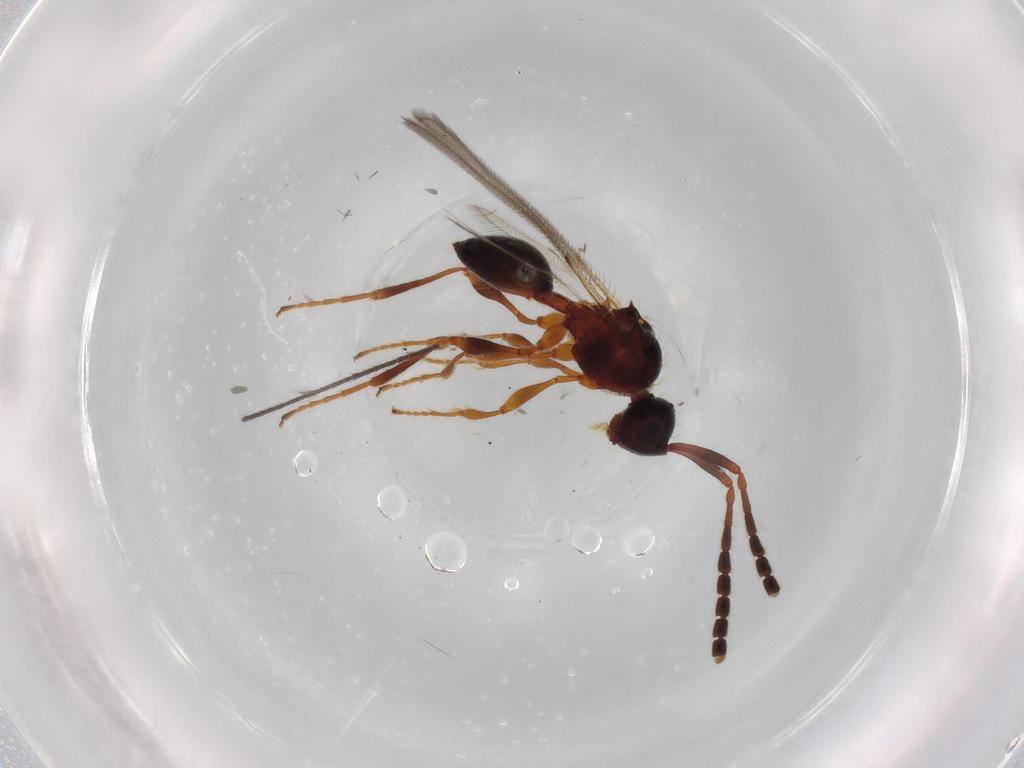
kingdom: Animalia
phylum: Arthropoda
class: Insecta
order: Hymenoptera
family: Diapriidae
